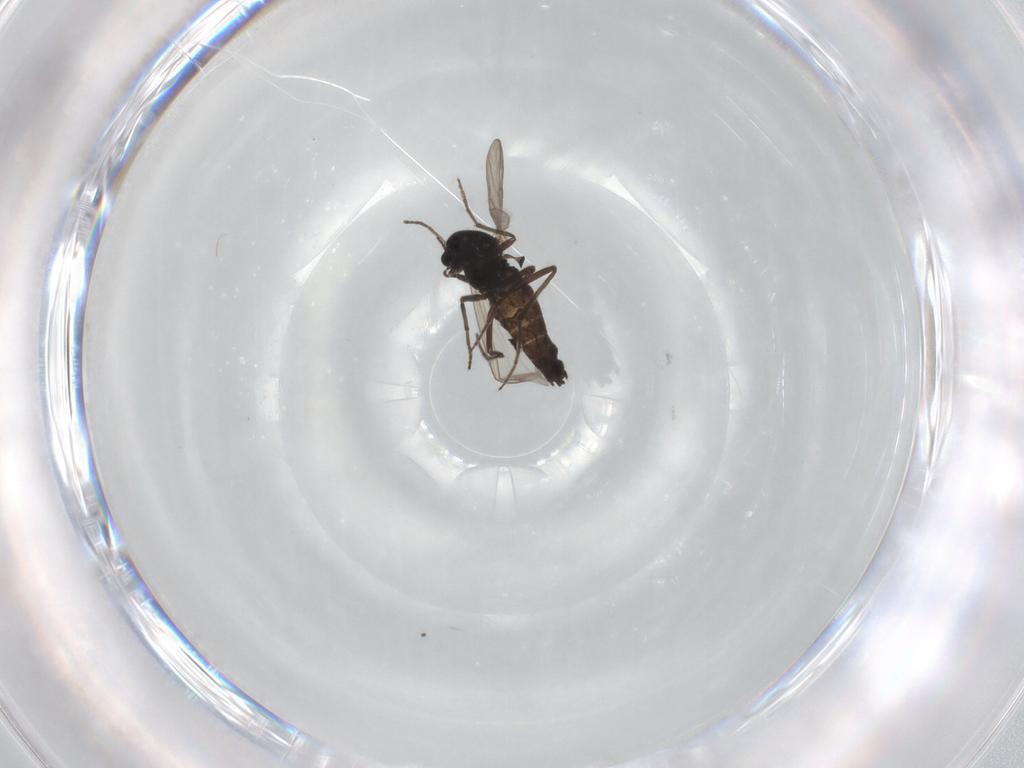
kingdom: Animalia
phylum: Arthropoda
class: Insecta
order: Diptera
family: Chironomidae
